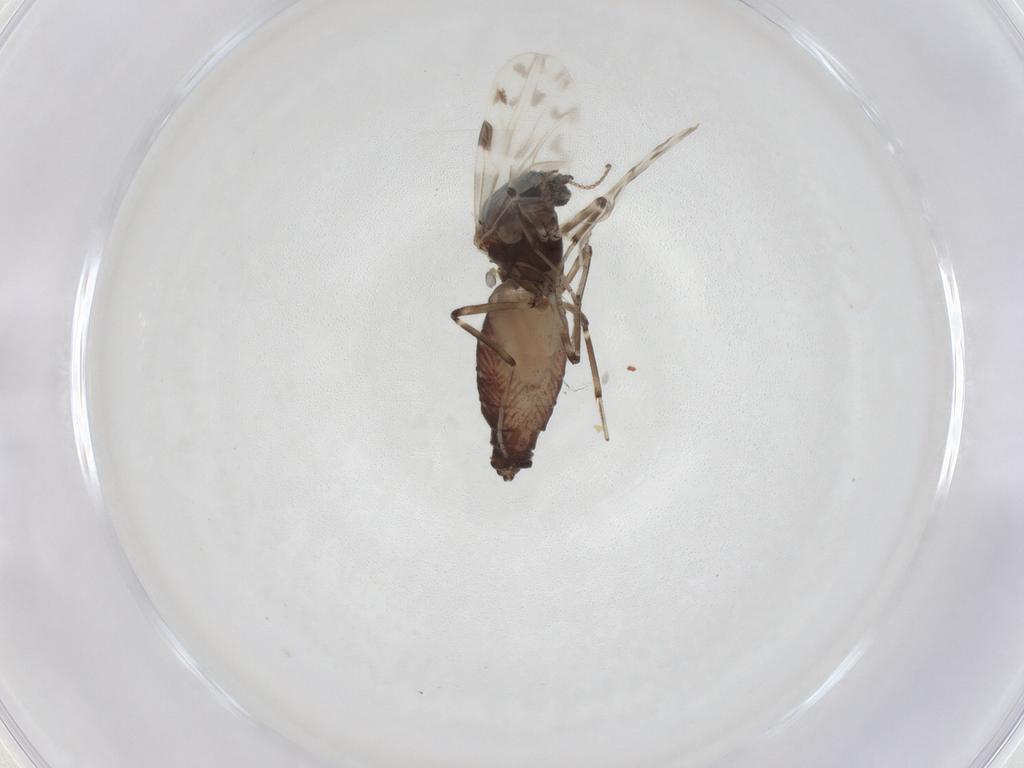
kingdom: Animalia
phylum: Arthropoda
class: Insecta
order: Diptera
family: Ceratopogonidae
